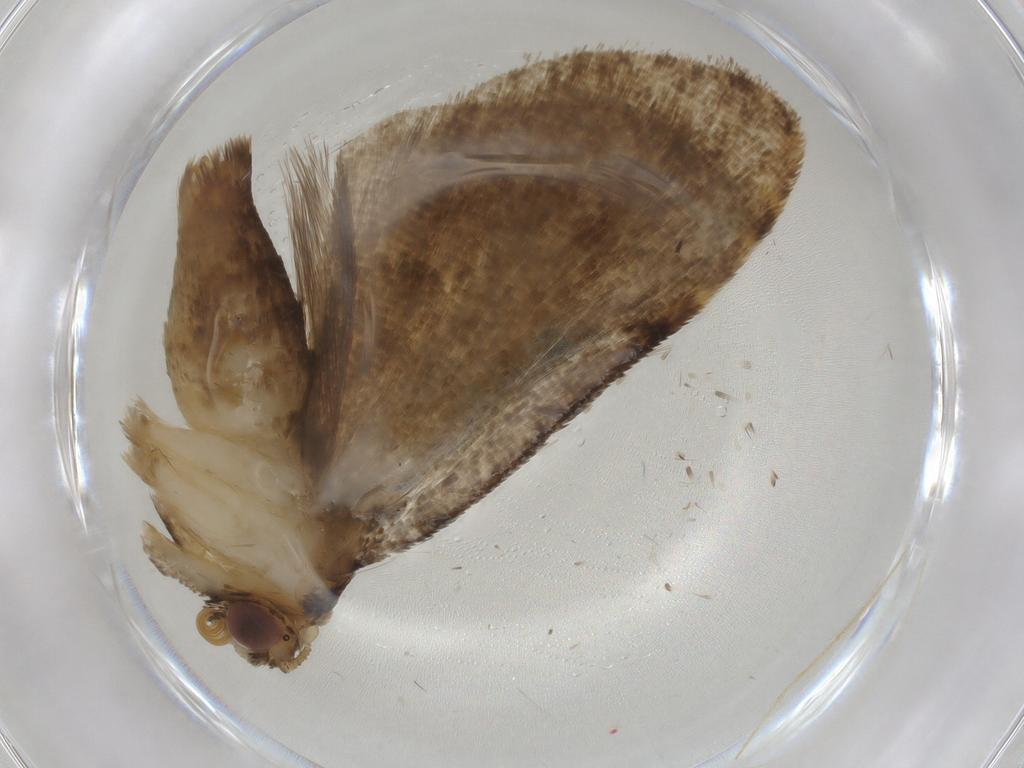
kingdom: Animalia
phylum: Arthropoda
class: Insecta
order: Lepidoptera
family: Erebidae
